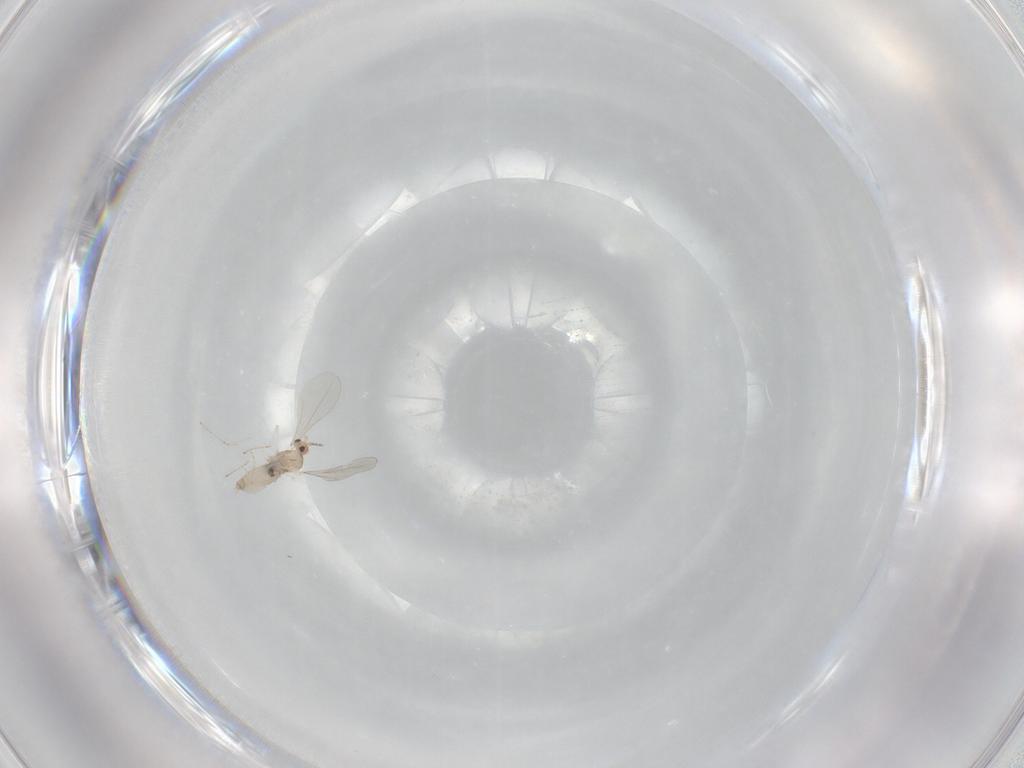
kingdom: Animalia
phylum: Arthropoda
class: Insecta
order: Diptera
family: Cecidomyiidae
